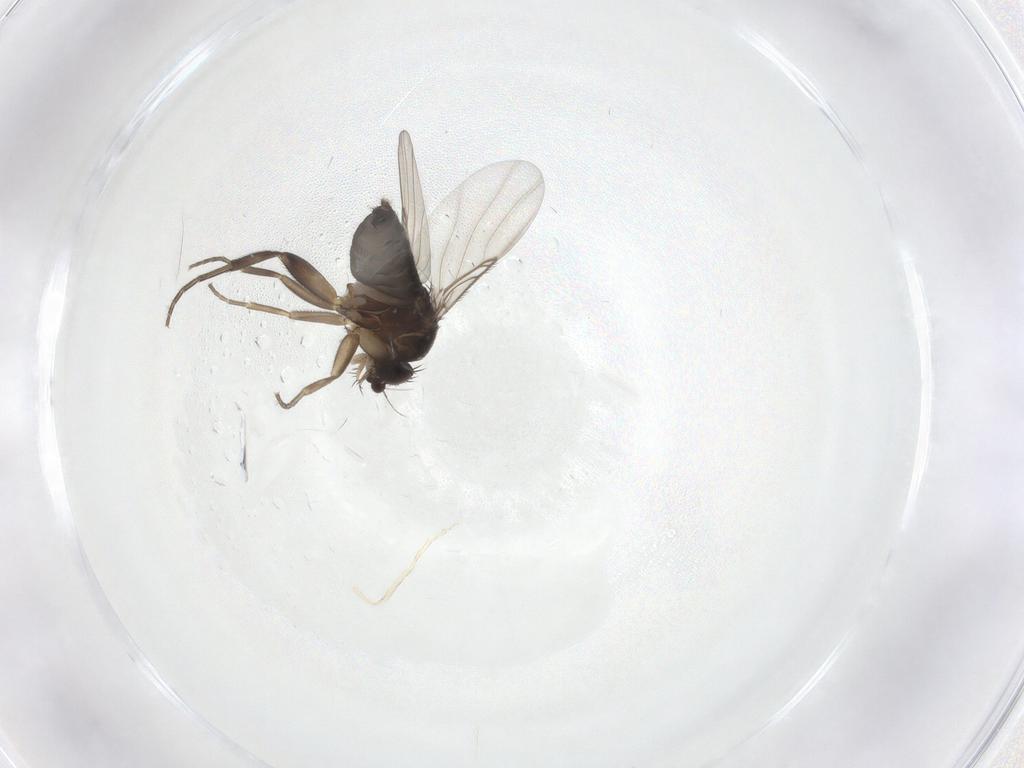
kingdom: Animalia
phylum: Arthropoda
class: Insecta
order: Diptera
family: Phoridae
